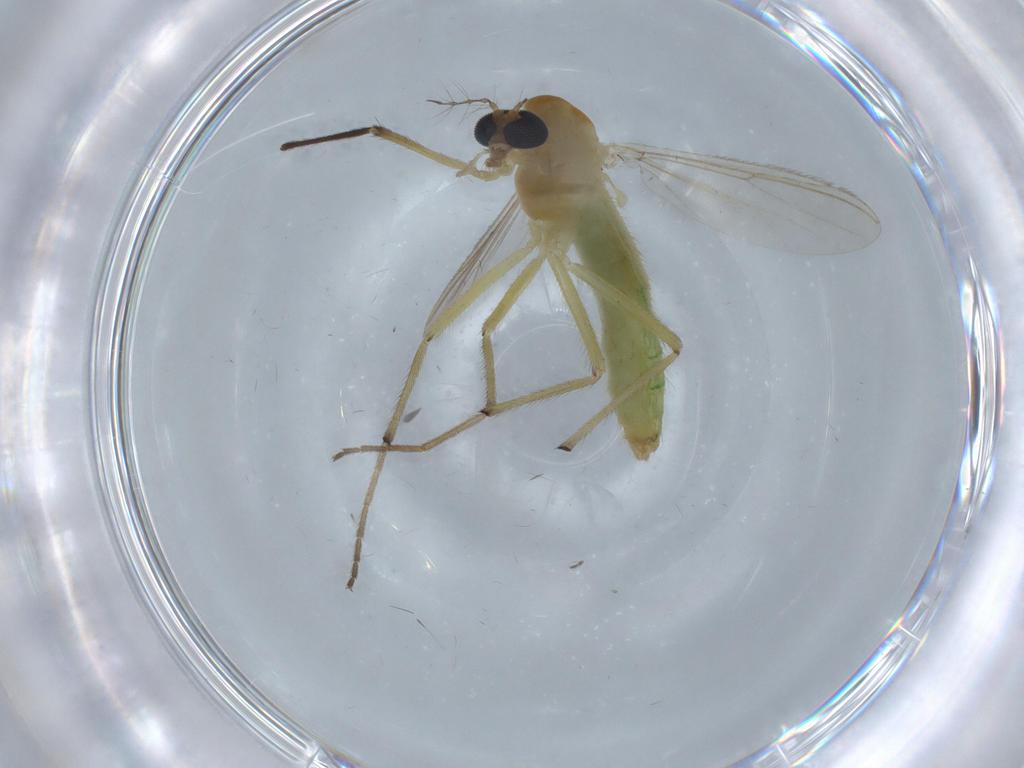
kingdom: Animalia
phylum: Arthropoda
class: Insecta
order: Diptera
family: Chironomidae
